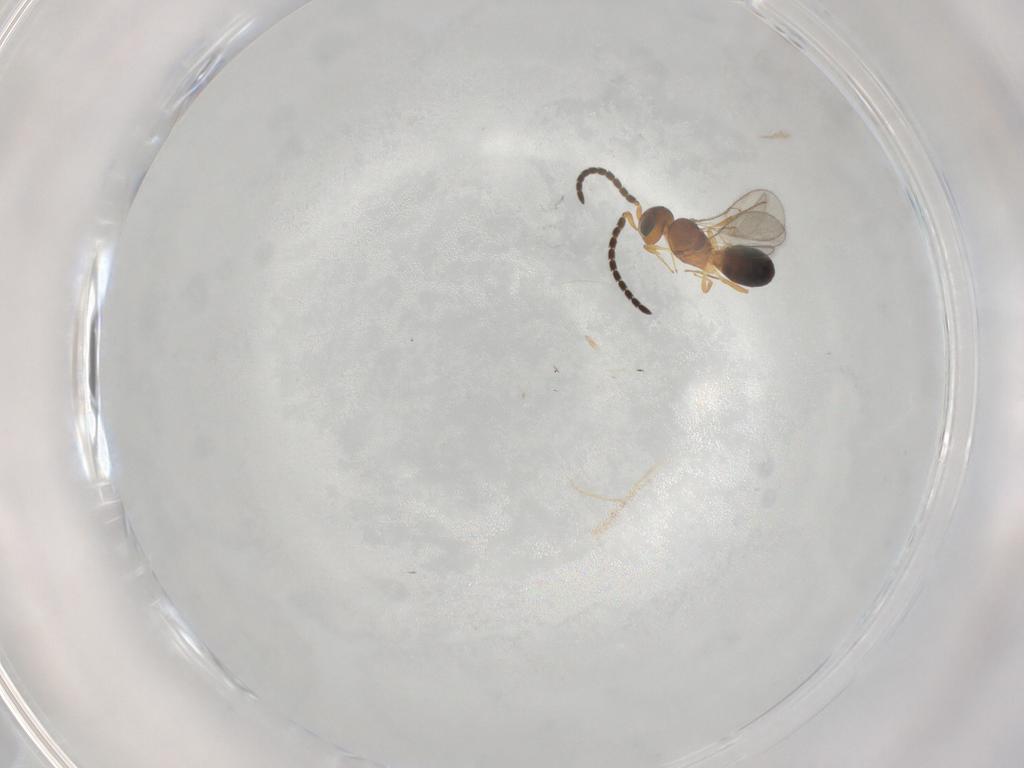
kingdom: Animalia
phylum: Arthropoda
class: Insecta
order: Hymenoptera
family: Scelionidae
